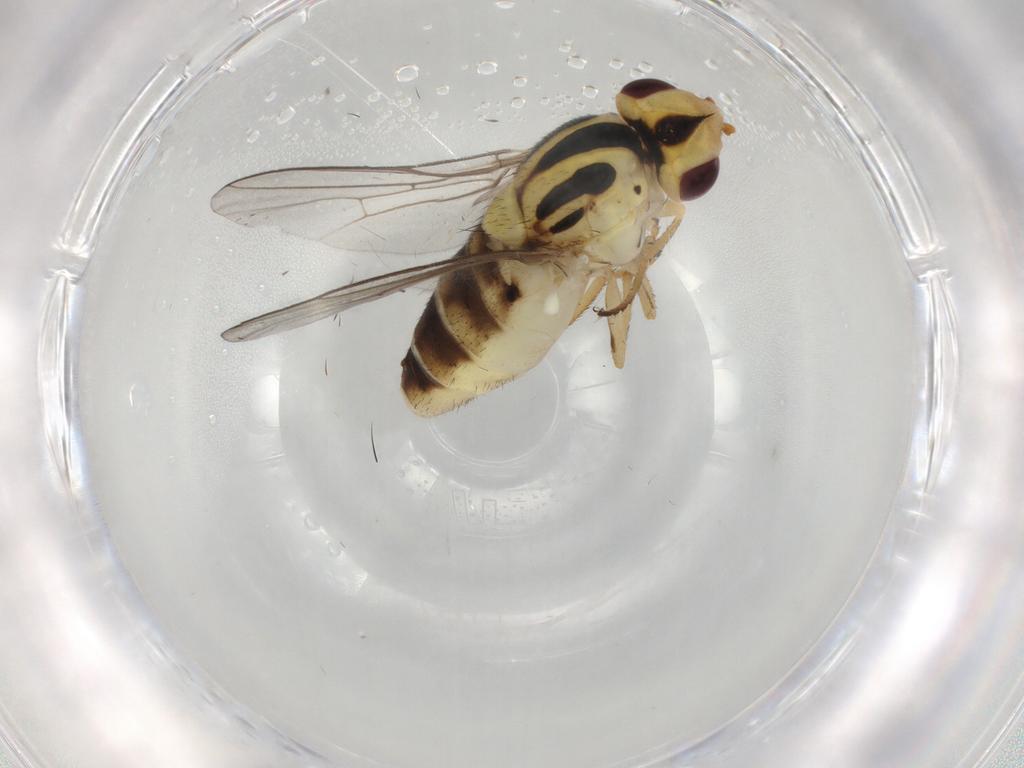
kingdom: Animalia
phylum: Arthropoda
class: Insecta
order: Diptera
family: Chloropidae
